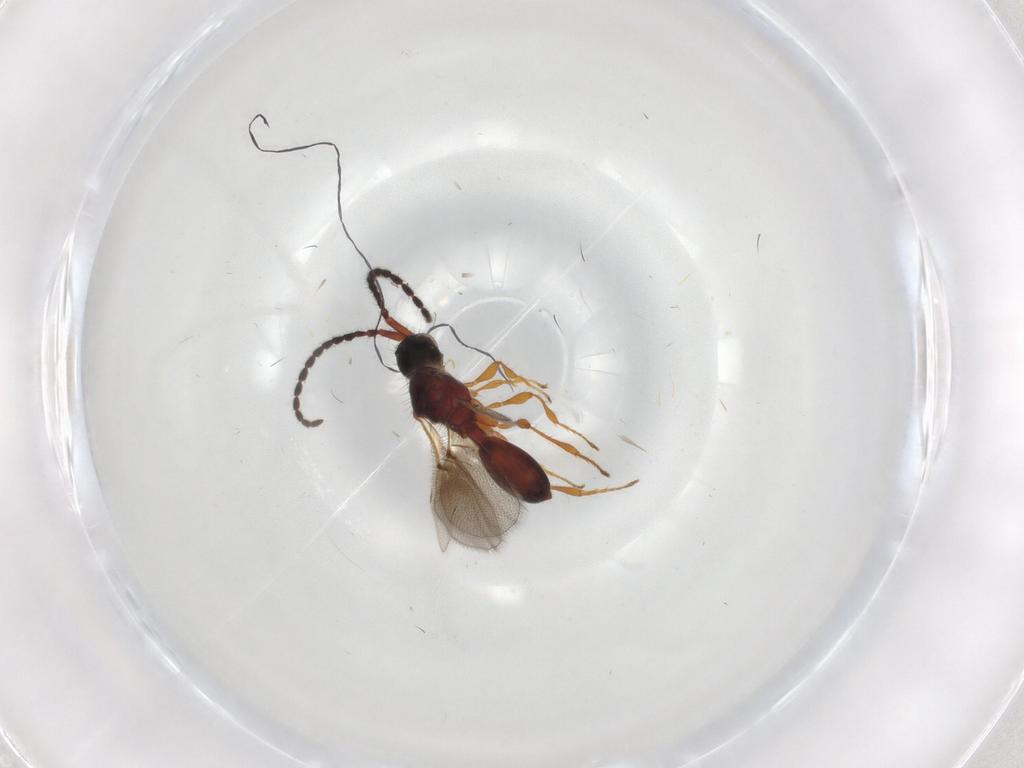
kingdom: Animalia
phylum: Arthropoda
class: Insecta
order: Hymenoptera
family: Diapriidae
